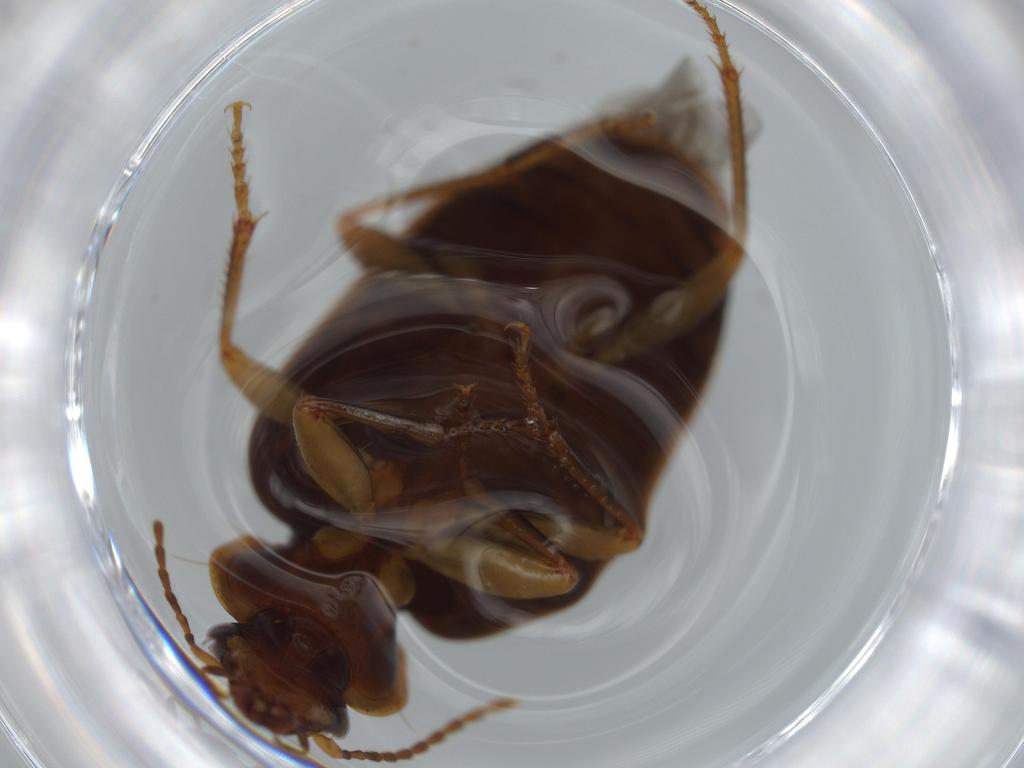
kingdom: Animalia
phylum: Arthropoda
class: Insecta
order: Coleoptera
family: Carabidae
